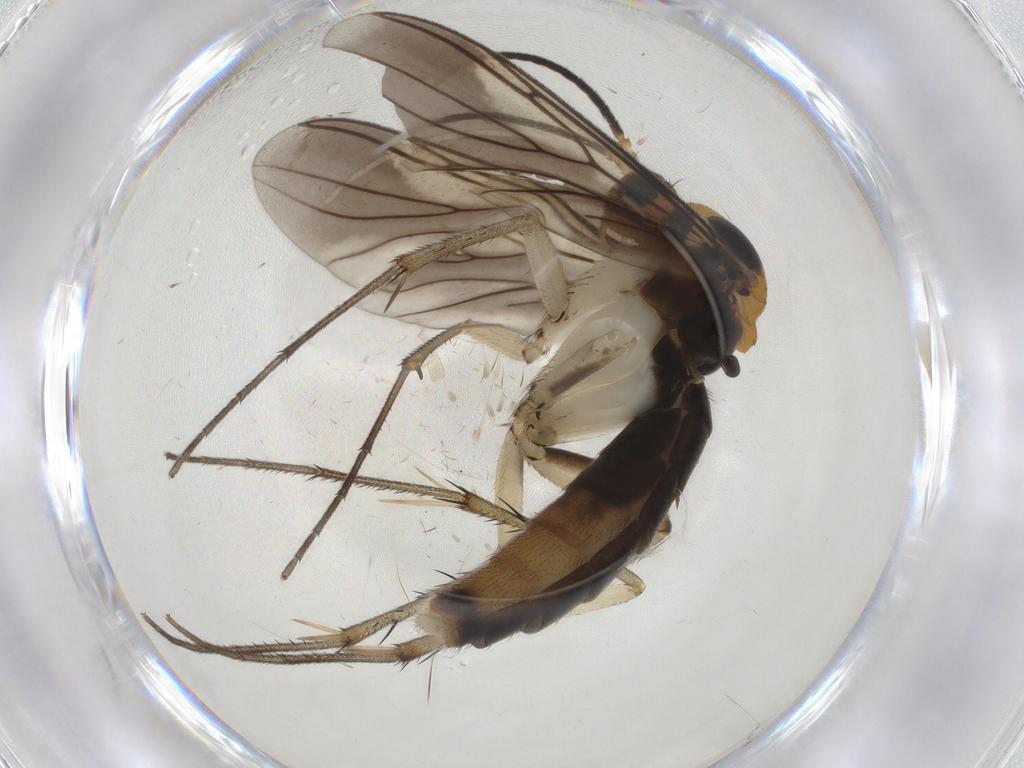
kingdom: Animalia
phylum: Arthropoda
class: Insecta
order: Diptera
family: Mycetophilidae
